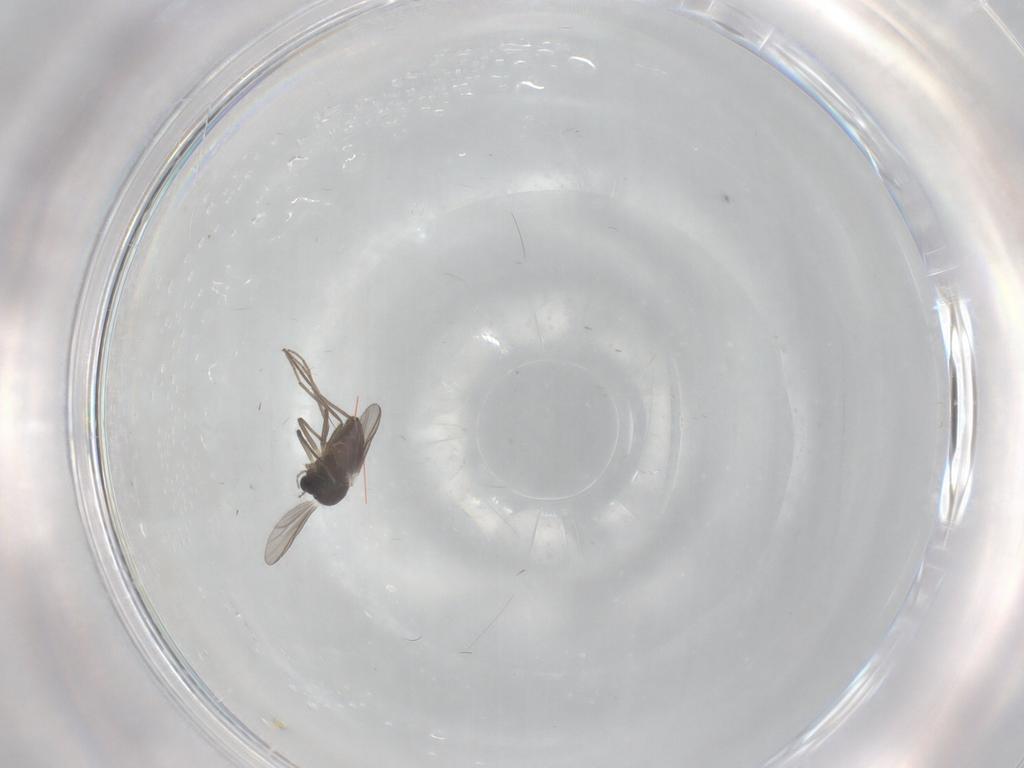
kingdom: Animalia
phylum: Arthropoda
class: Insecta
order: Diptera
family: Chironomidae
